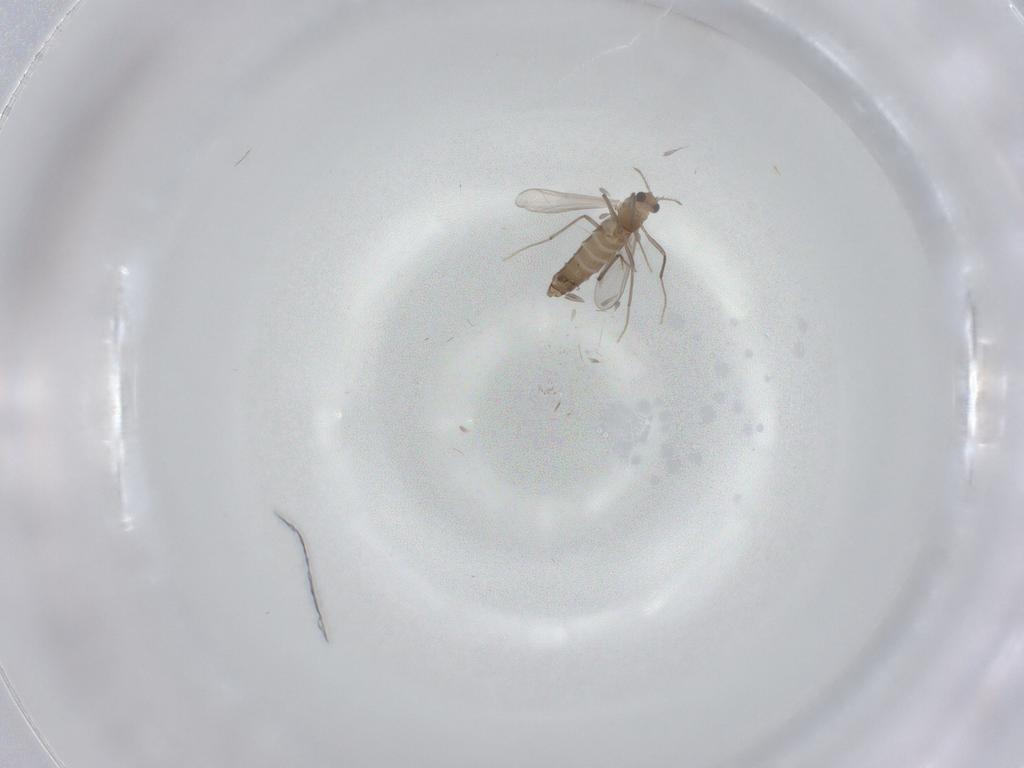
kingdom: Animalia
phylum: Arthropoda
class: Insecta
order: Diptera
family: Chironomidae
